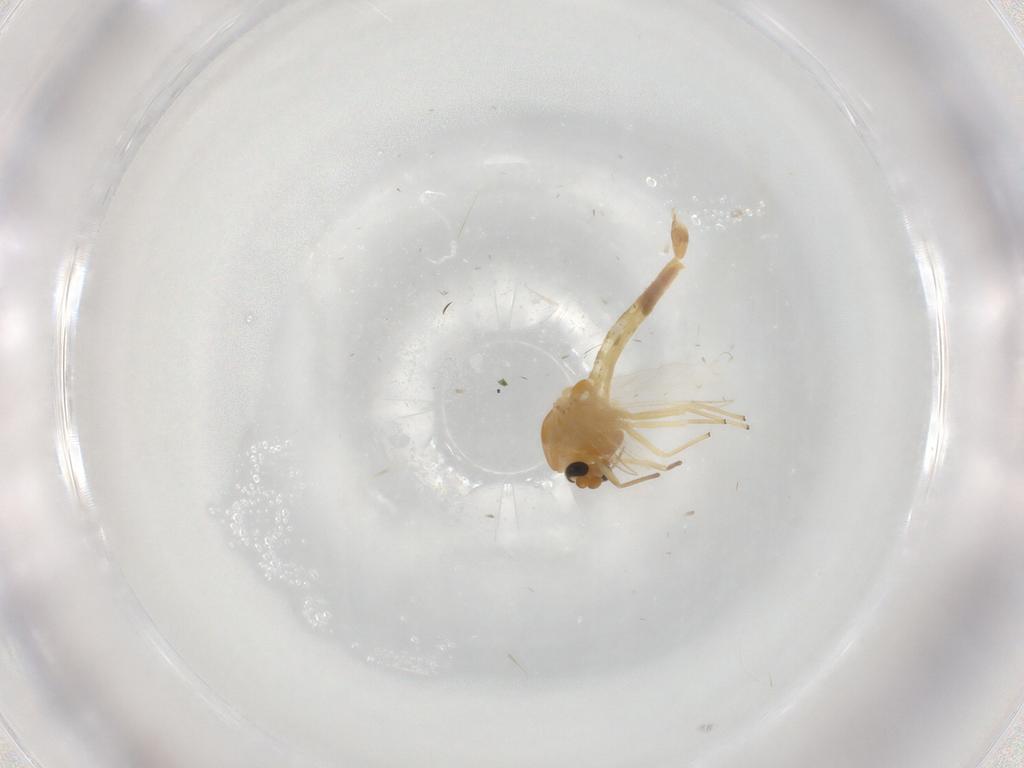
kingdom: Animalia
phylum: Arthropoda
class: Insecta
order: Diptera
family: Chironomidae
